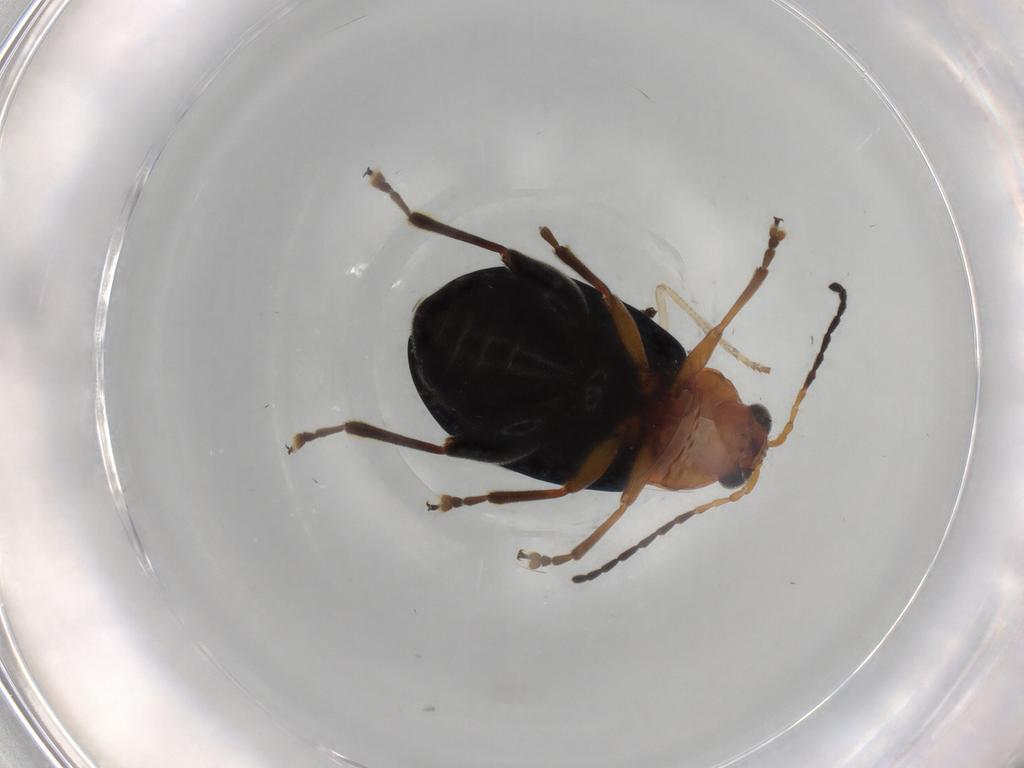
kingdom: Animalia
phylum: Arthropoda
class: Insecta
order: Coleoptera
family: Chrysomelidae
